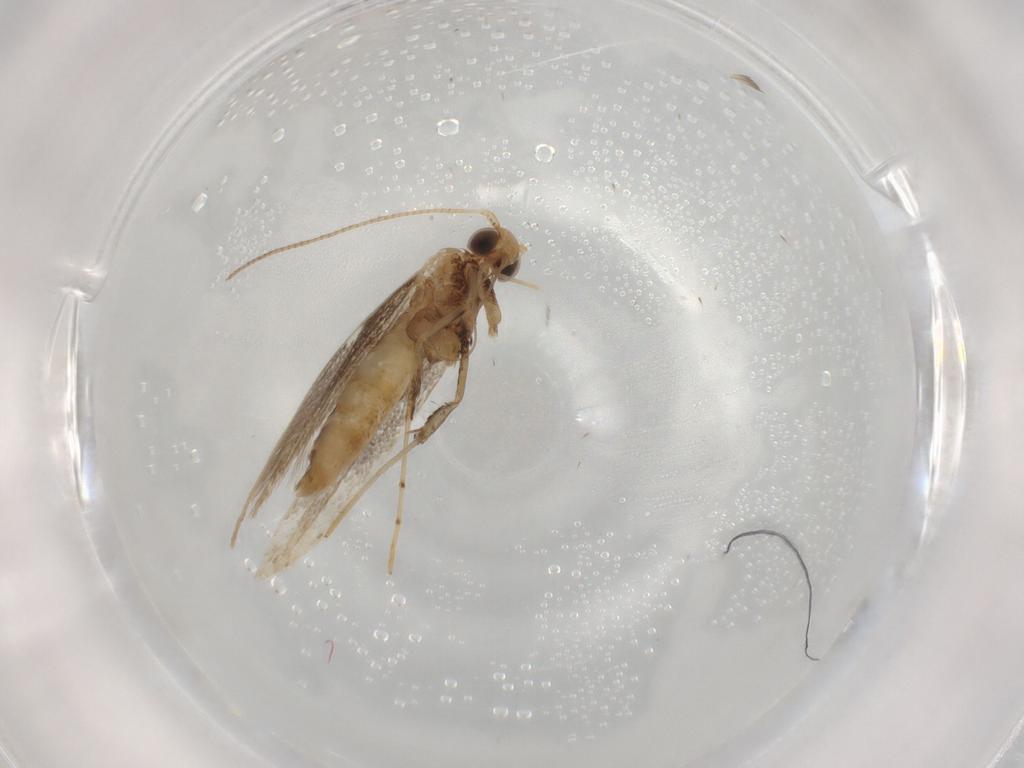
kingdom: Animalia
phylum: Arthropoda
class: Insecta
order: Lepidoptera
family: Gracillariidae
